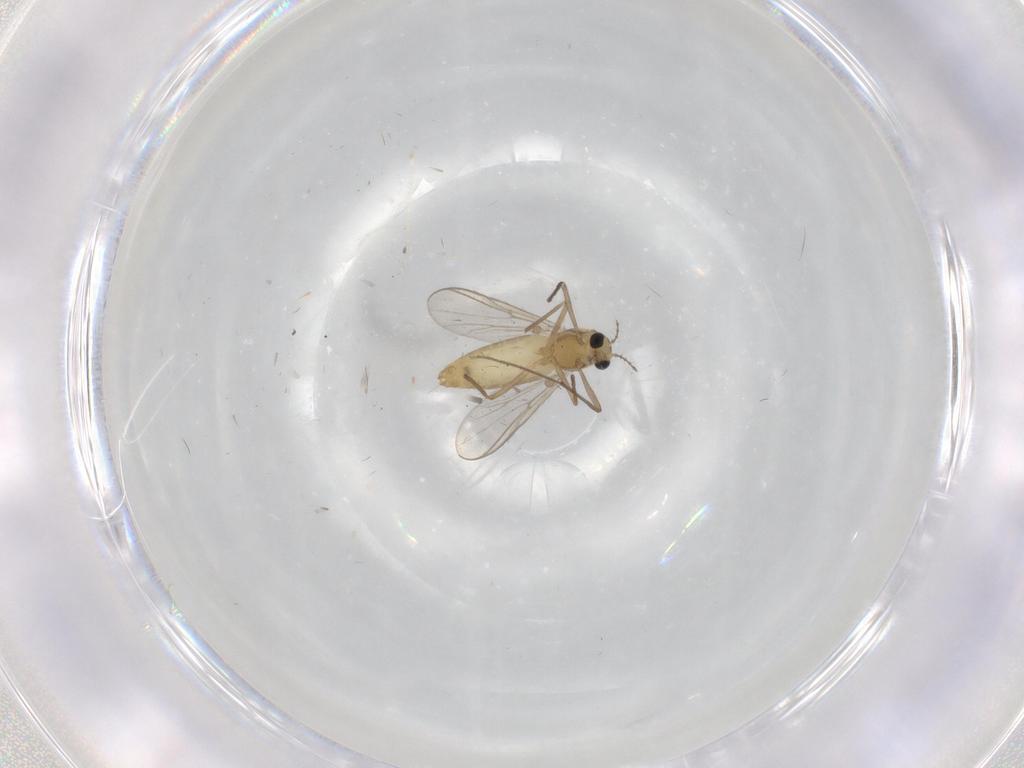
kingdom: Animalia
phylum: Arthropoda
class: Insecta
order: Diptera
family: Chironomidae
